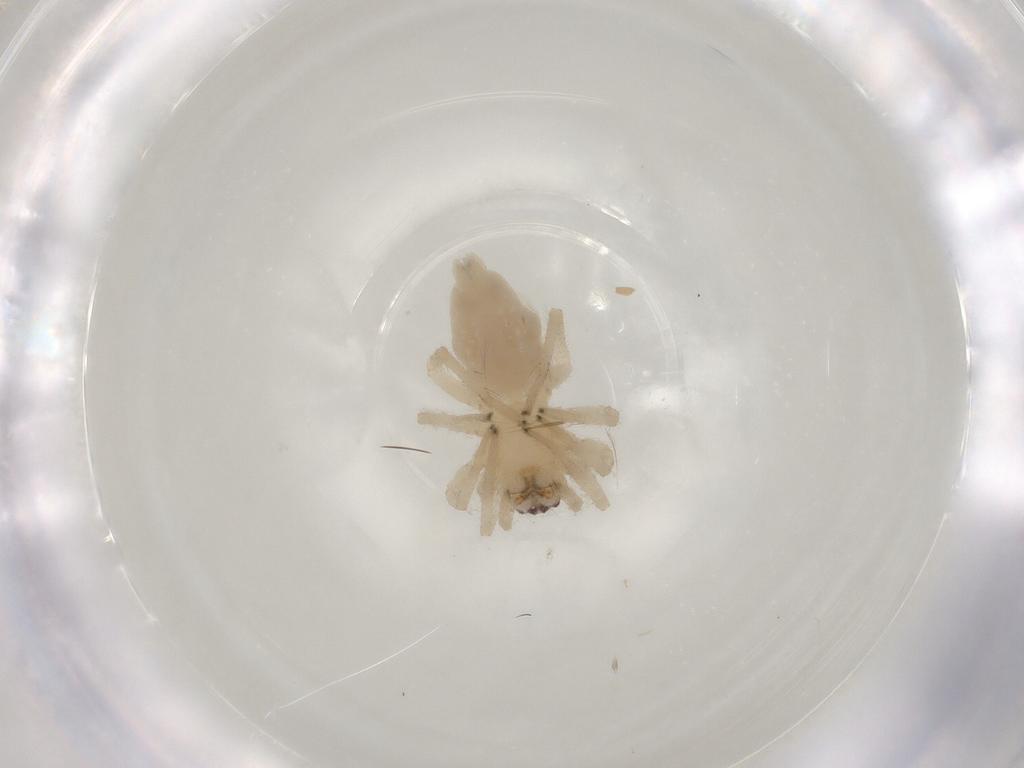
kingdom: Animalia
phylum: Arthropoda
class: Arachnida
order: Araneae
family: Cheiracanthiidae
